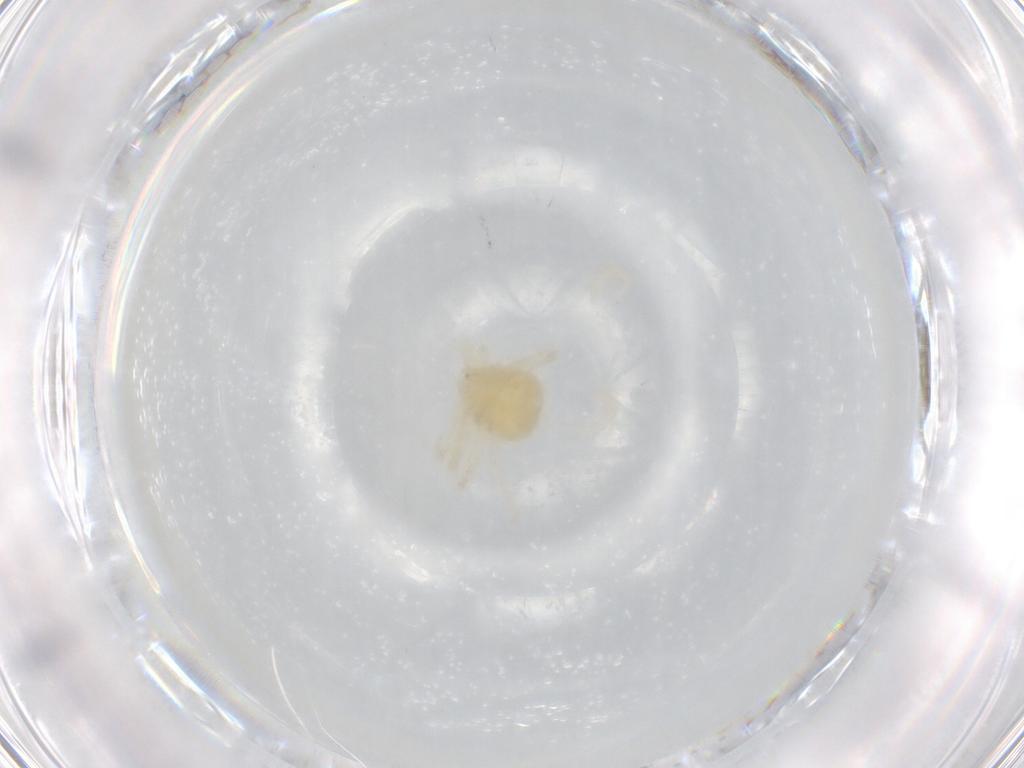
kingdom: Animalia
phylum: Arthropoda
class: Arachnida
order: Trombidiformes
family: Eupodidae
